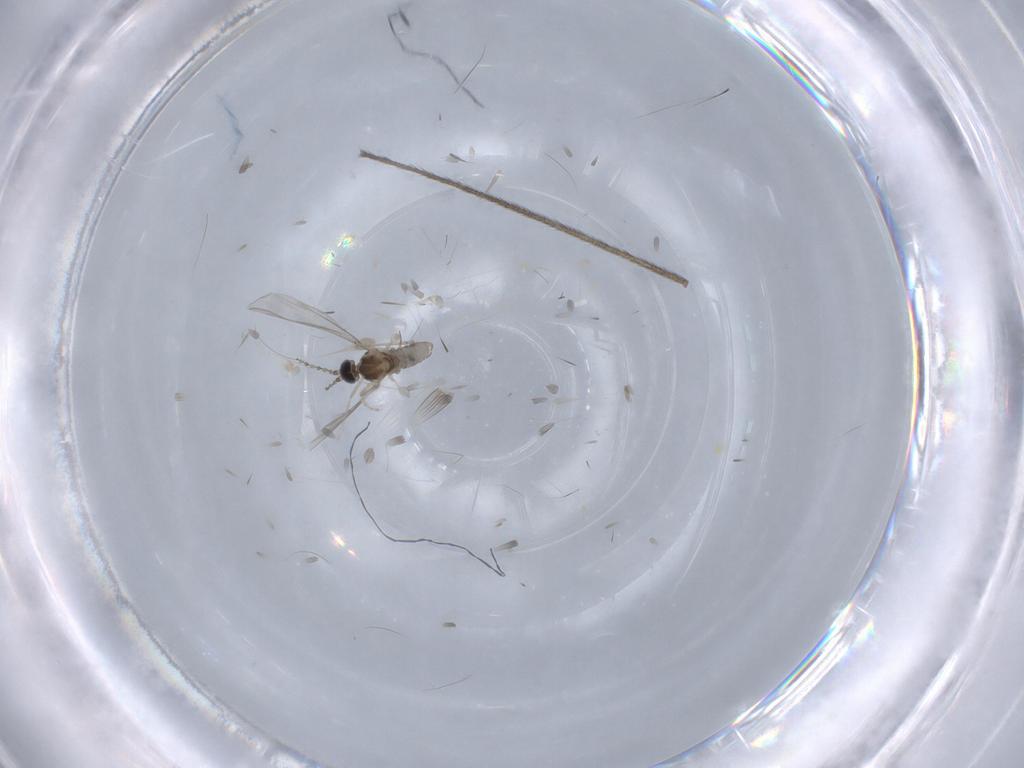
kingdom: Animalia
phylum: Arthropoda
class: Insecta
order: Diptera
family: Cecidomyiidae
